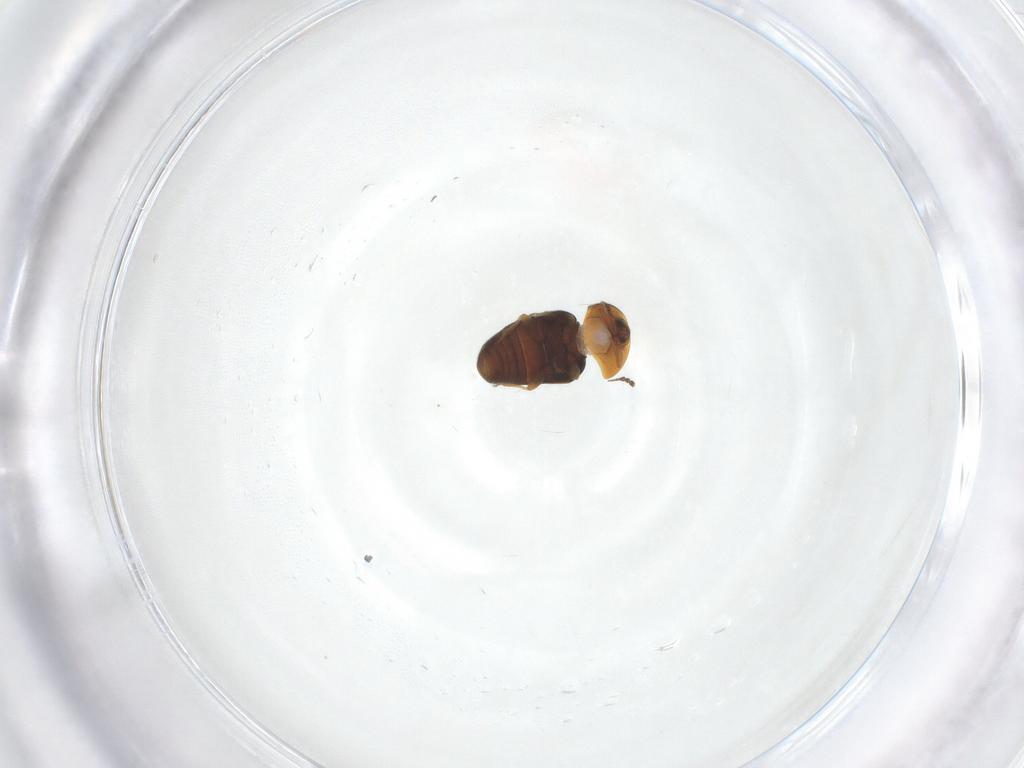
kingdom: Animalia
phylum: Arthropoda
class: Insecta
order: Coleoptera
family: Corylophidae
